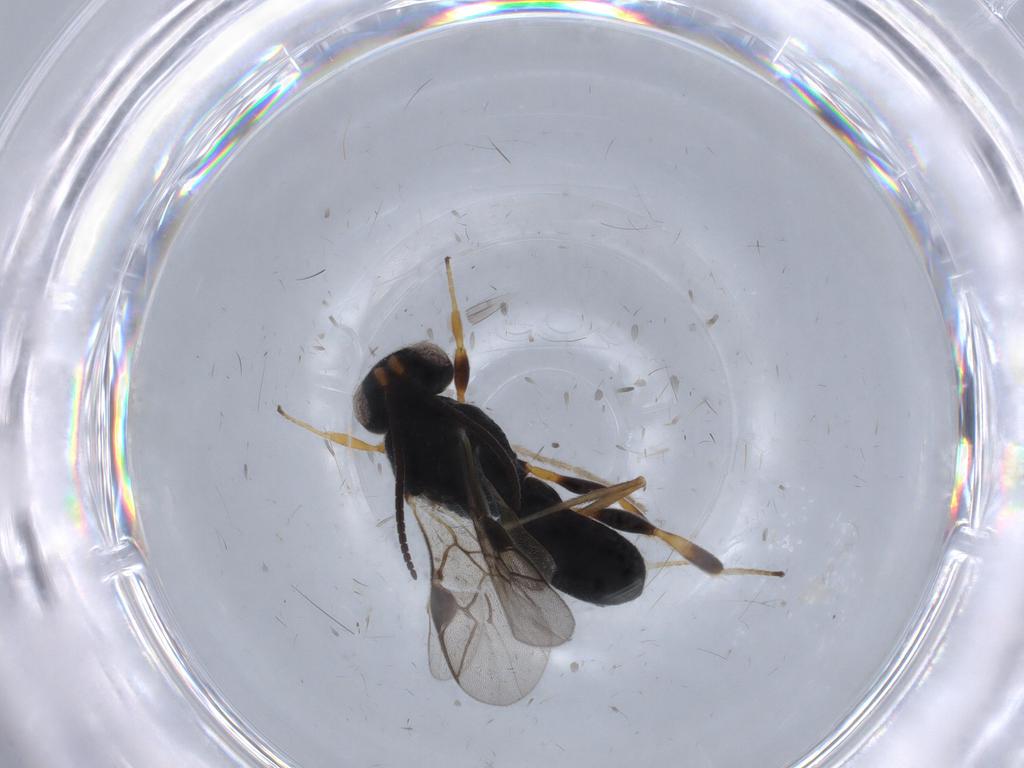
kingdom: Animalia
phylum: Arthropoda
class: Insecta
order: Hymenoptera
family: Braconidae
